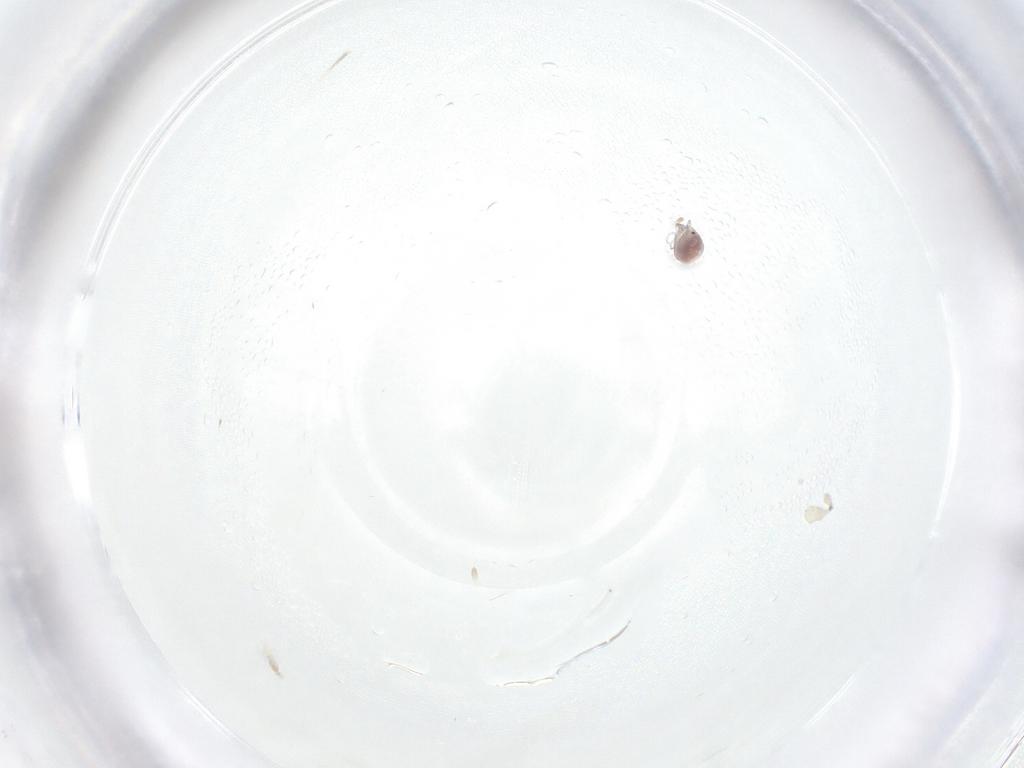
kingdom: Animalia
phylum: Arthropoda
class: Arachnida
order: Trombidiformes
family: Pionidae
